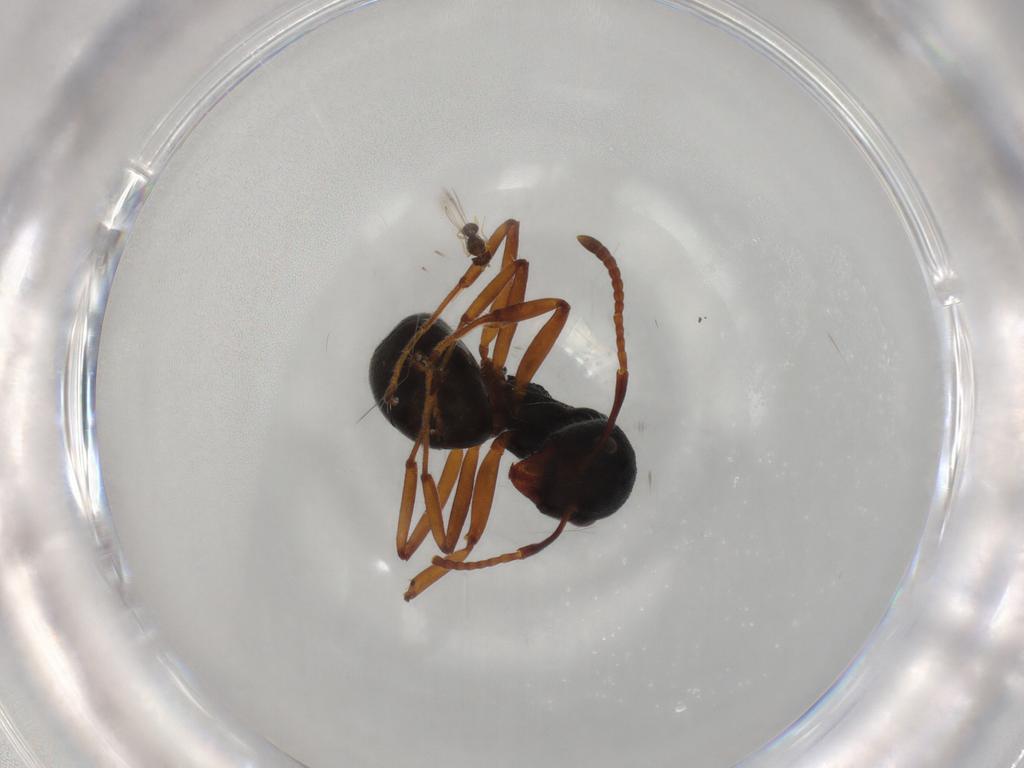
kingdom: Animalia
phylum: Arthropoda
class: Insecta
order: Hymenoptera
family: Formicidae
